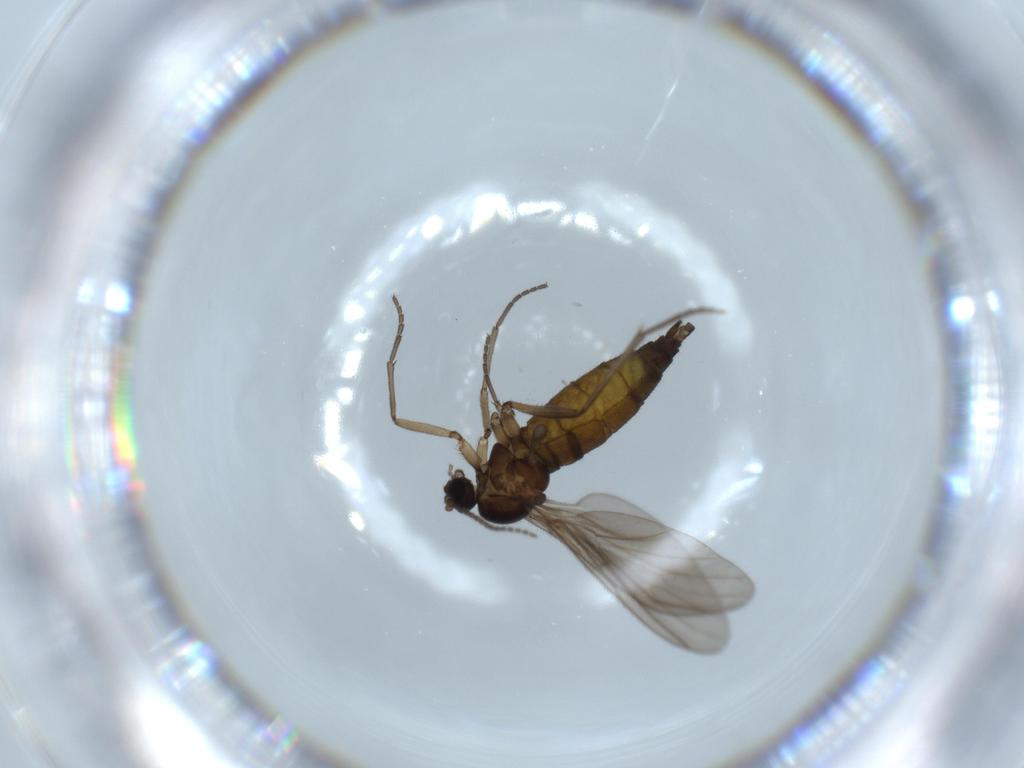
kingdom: Animalia
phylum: Arthropoda
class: Insecta
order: Diptera
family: Sciaridae
